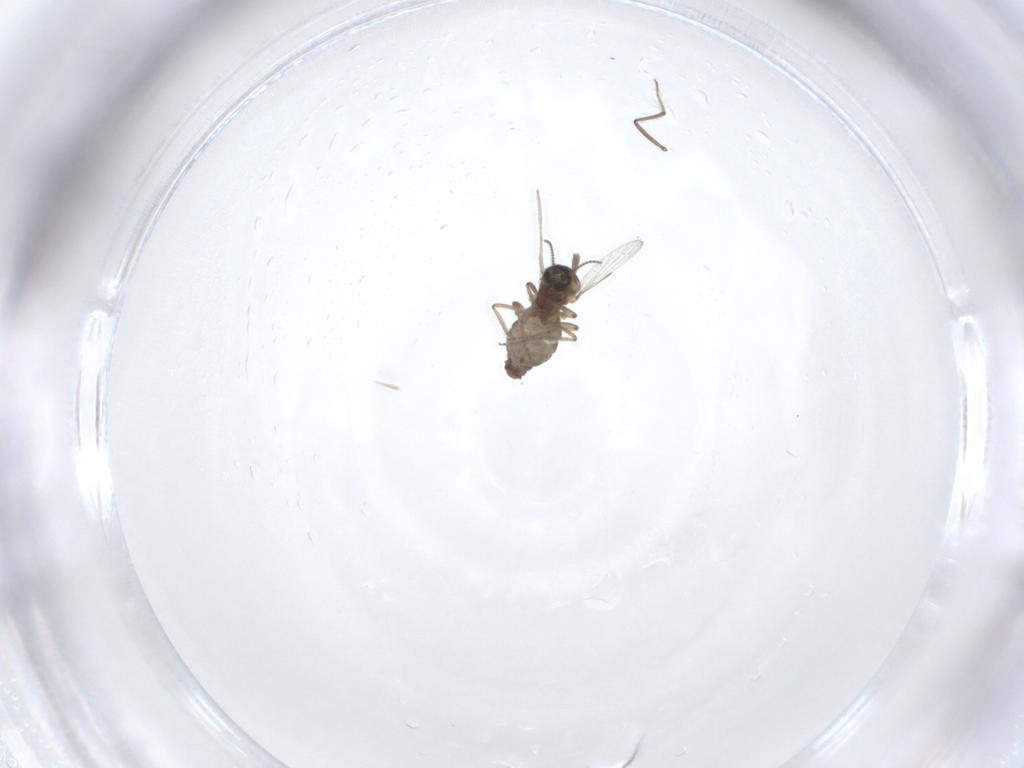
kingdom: Animalia
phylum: Arthropoda
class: Insecta
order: Diptera
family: Ceratopogonidae
